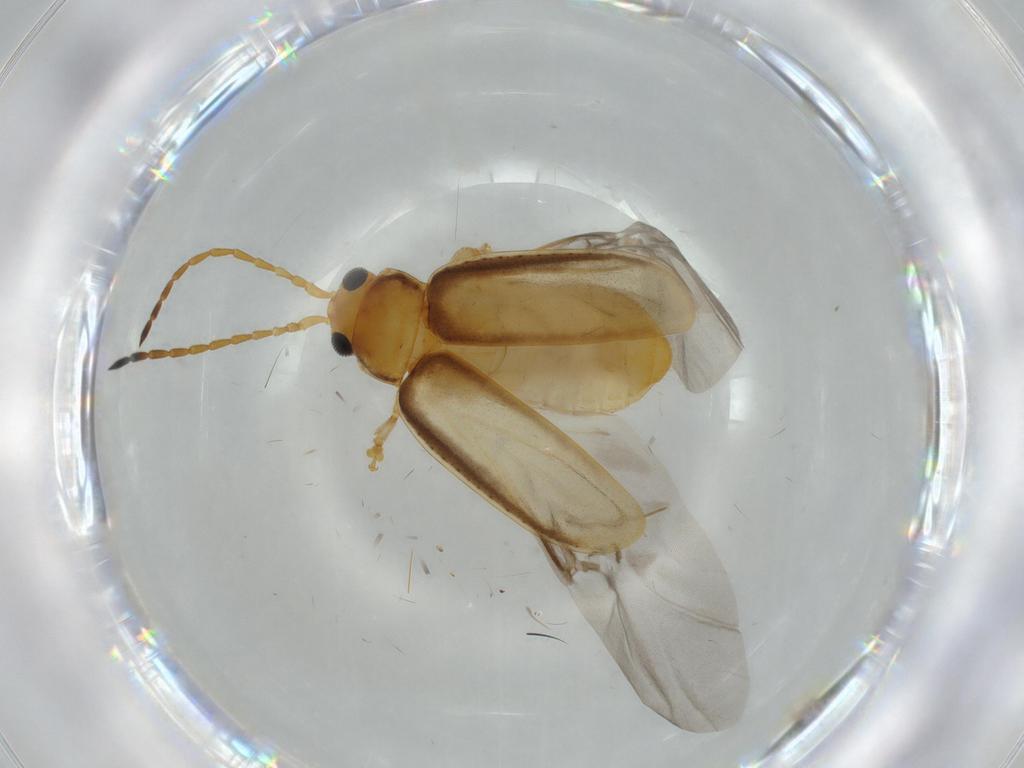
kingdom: Animalia
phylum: Arthropoda
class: Insecta
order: Coleoptera
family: Chrysomelidae
